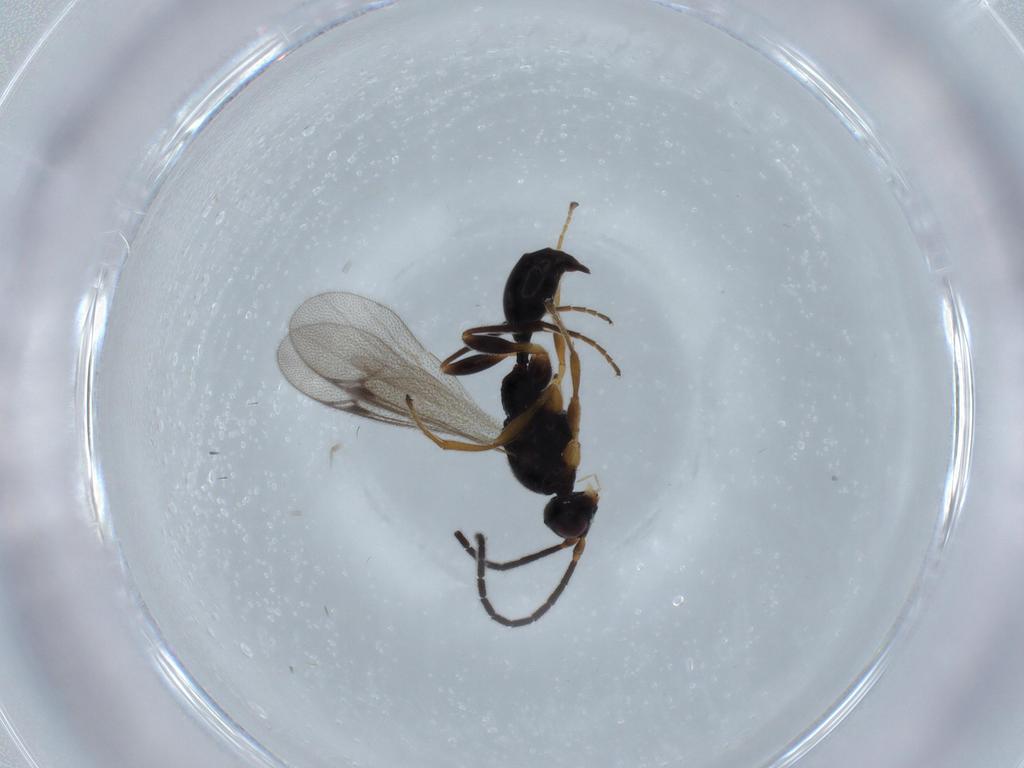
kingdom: Animalia
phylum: Arthropoda
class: Insecta
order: Hymenoptera
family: Proctotrupidae
